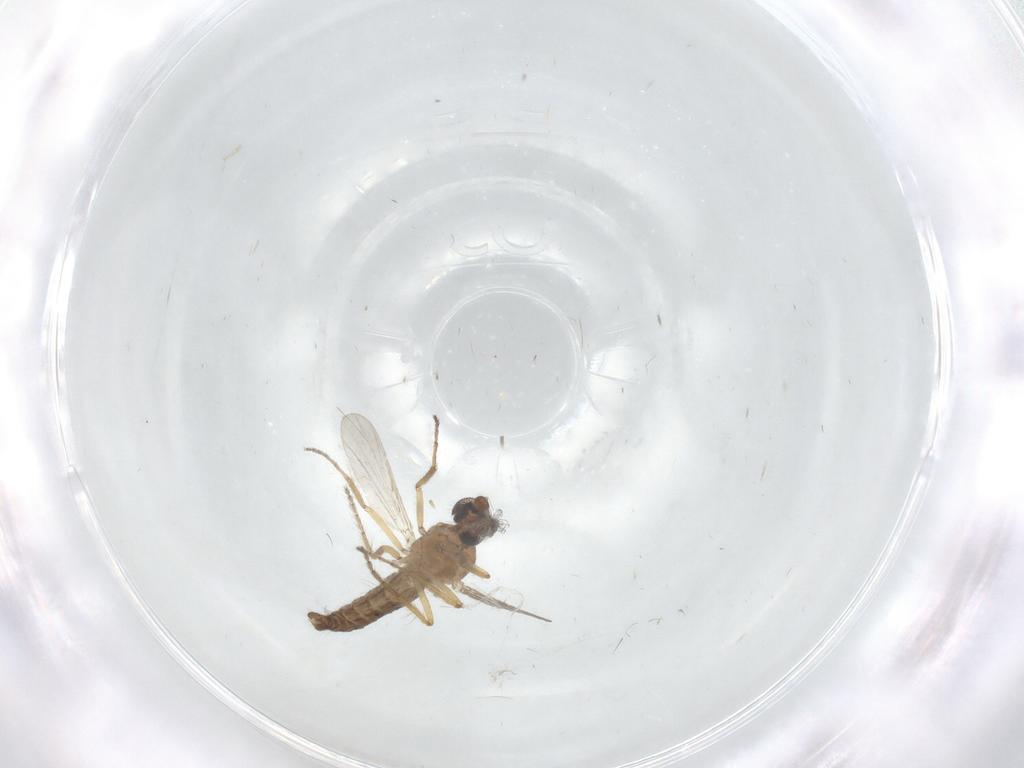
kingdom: Animalia
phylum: Arthropoda
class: Insecta
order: Diptera
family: Ceratopogonidae
